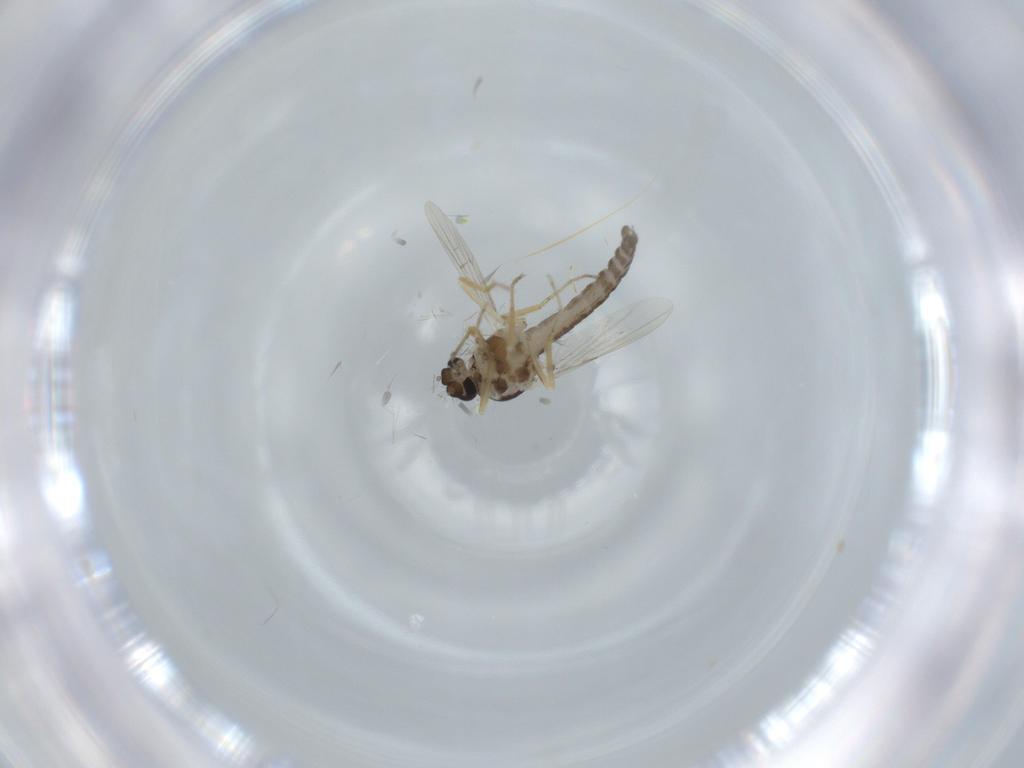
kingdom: Animalia
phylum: Arthropoda
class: Insecta
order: Diptera
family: Ceratopogonidae
